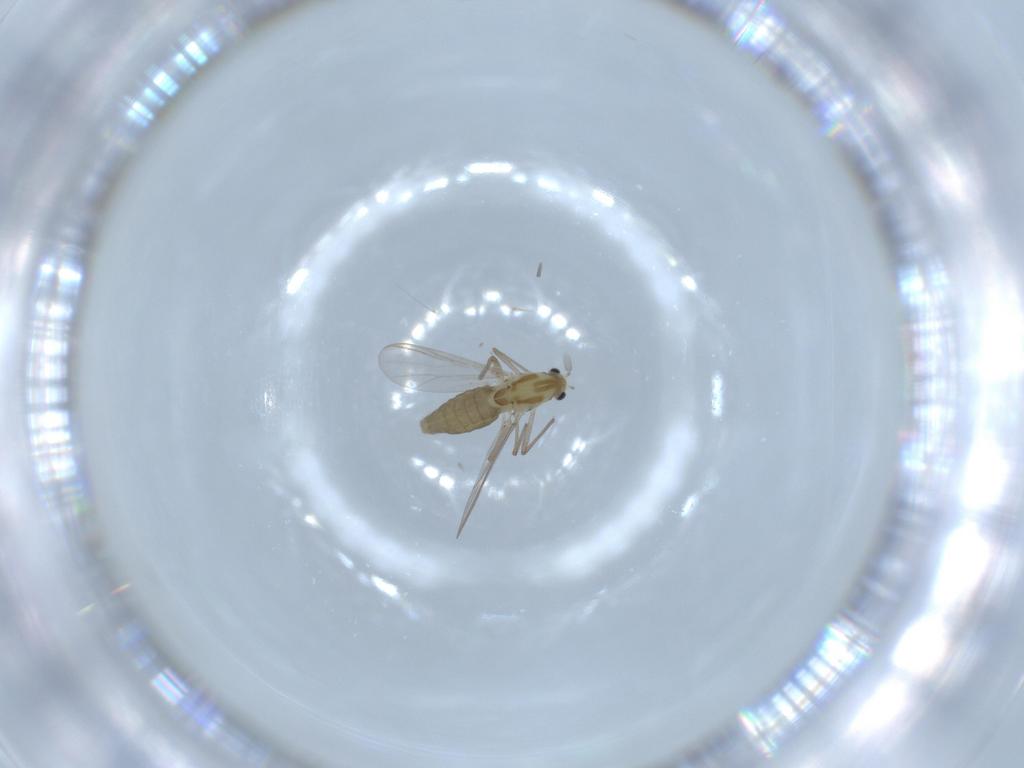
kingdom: Animalia
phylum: Arthropoda
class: Insecta
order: Diptera
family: Chironomidae
